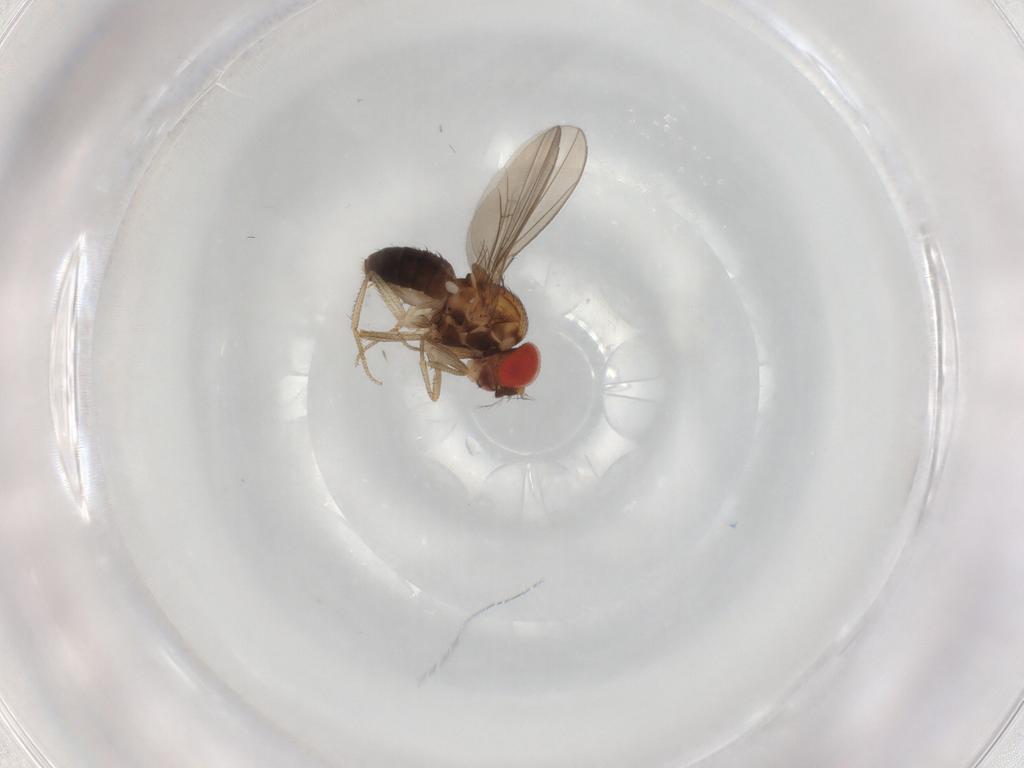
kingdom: Animalia
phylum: Arthropoda
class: Insecta
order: Diptera
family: Drosophilidae
